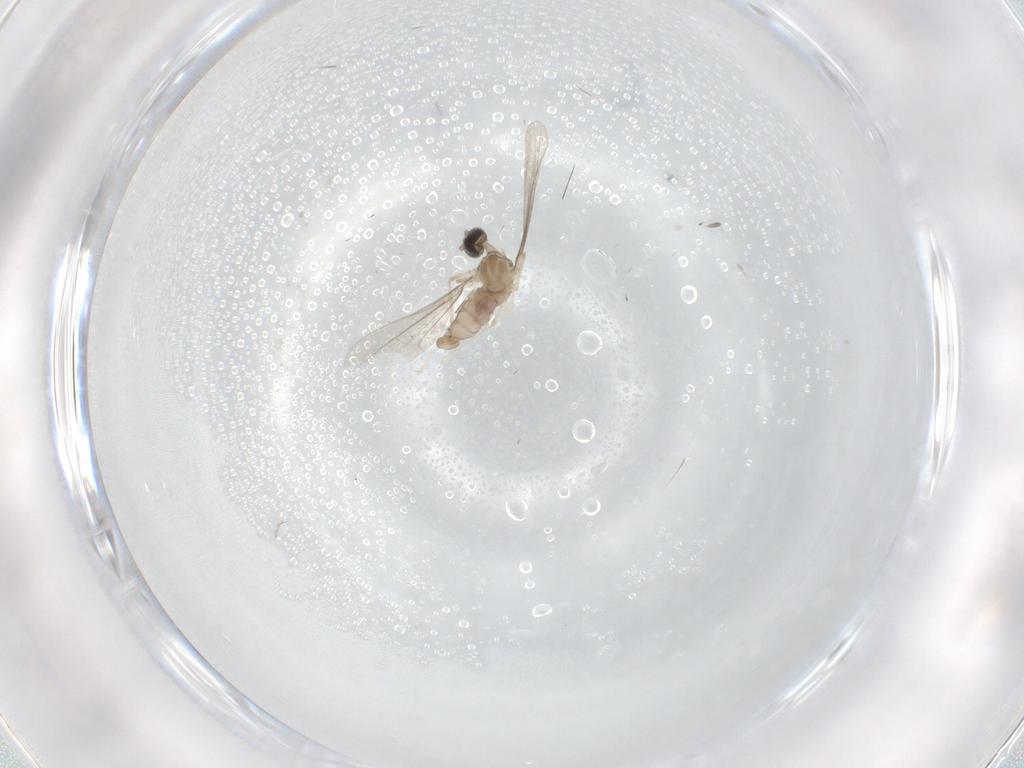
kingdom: Animalia
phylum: Arthropoda
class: Insecta
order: Diptera
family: Cecidomyiidae
